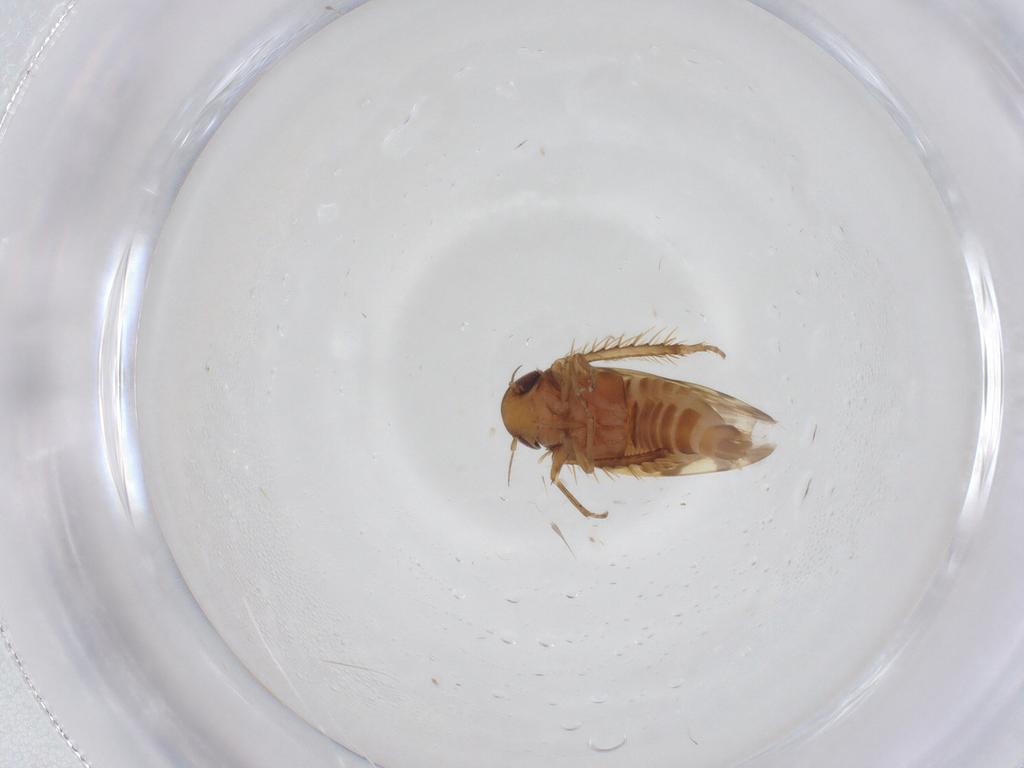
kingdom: Animalia
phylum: Arthropoda
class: Insecta
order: Hemiptera
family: Cicadellidae
